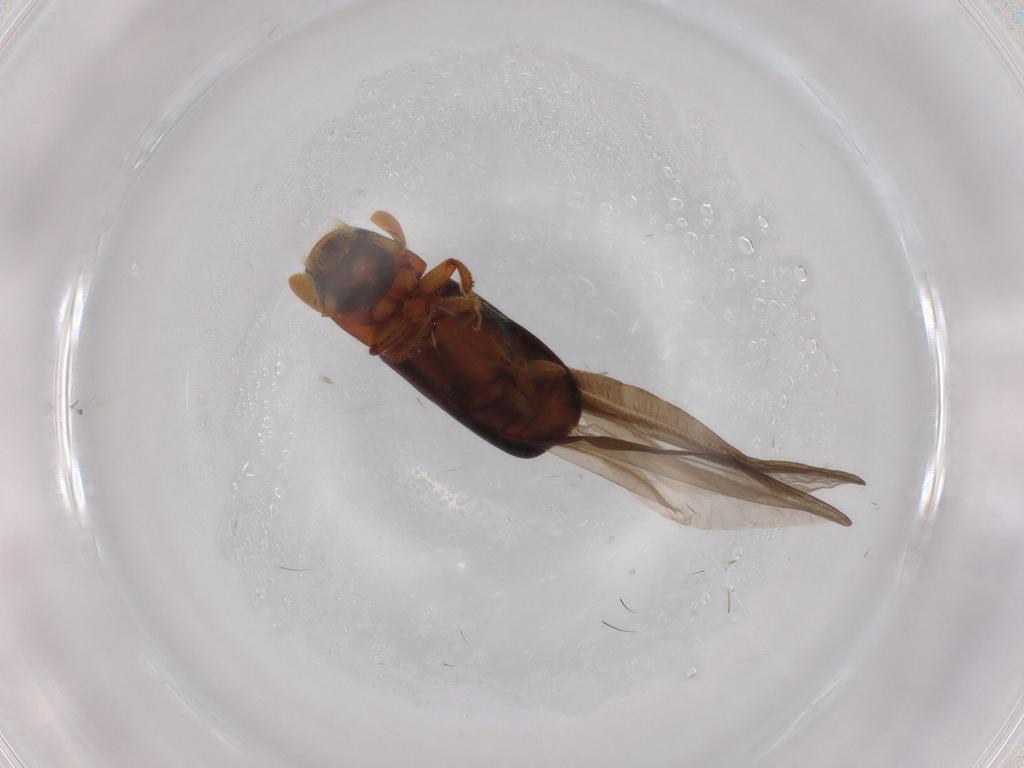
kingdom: Animalia
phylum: Arthropoda
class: Insecta
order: Coleoptera
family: Curculionidae
